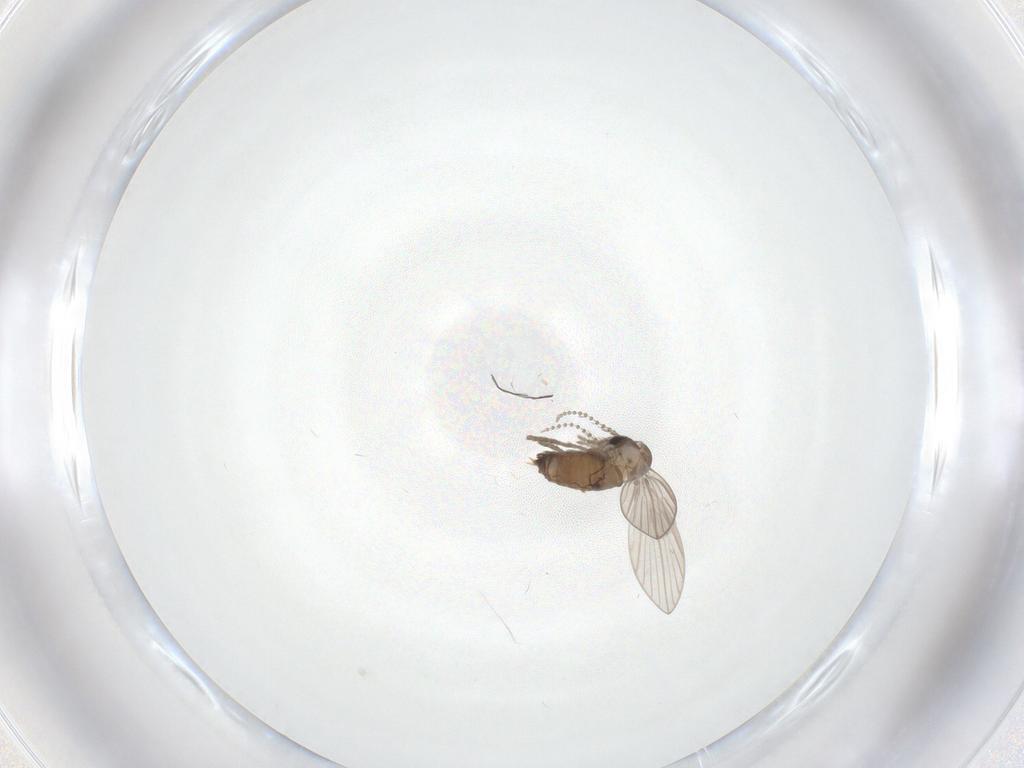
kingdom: Animalia
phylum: Arthropoda
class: Insecta
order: Diptera
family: Psychodidae
